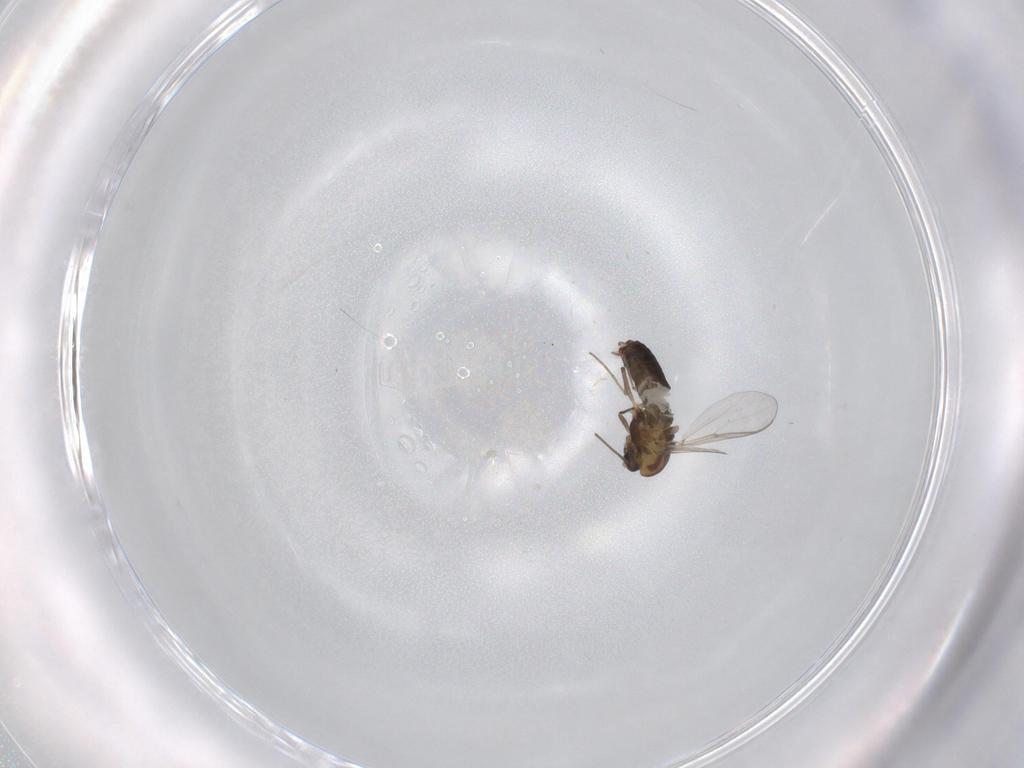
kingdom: Animalia
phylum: Arthropoda
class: Insecta
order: Diptera
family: Chironomidae
